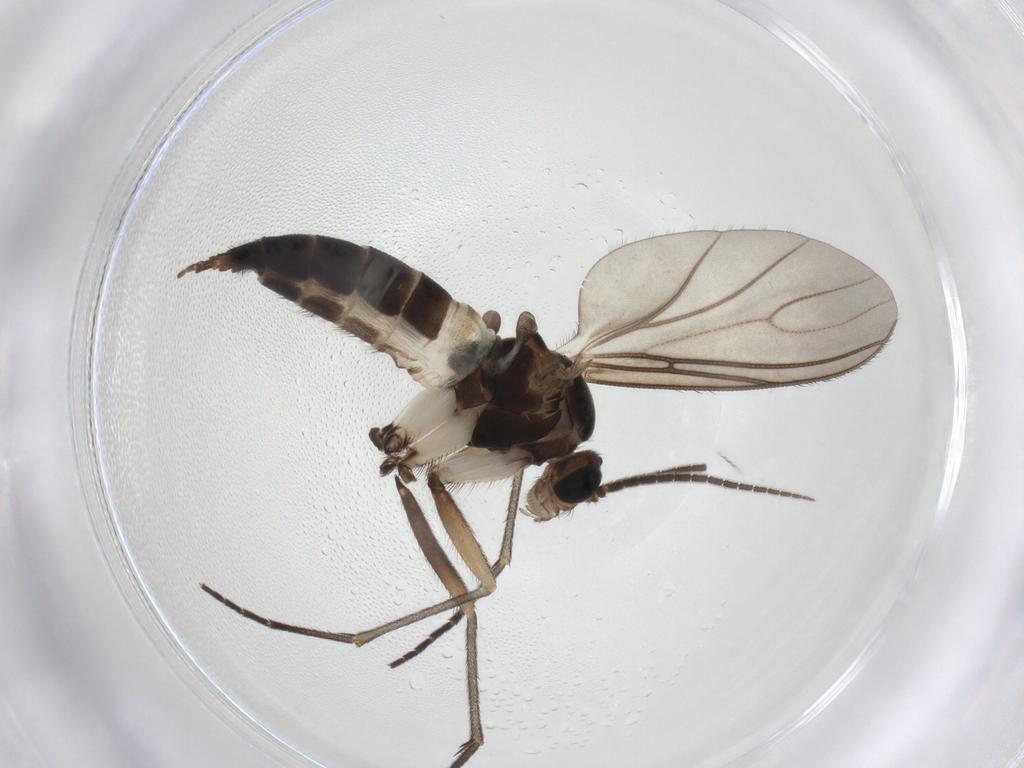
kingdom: Animalia
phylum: Arthropoda
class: Insecta
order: Diptera
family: Sciaridae
